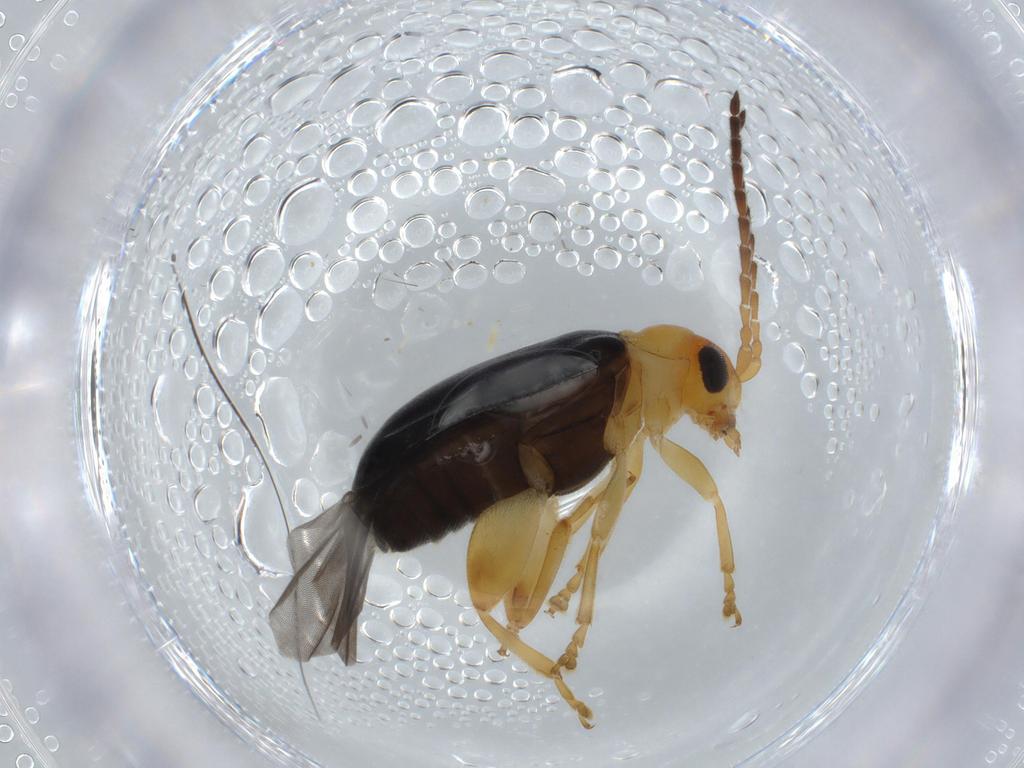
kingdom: Animalia
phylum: Arthropoda
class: Insecta
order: Coleoptera
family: Chrysomelidae
